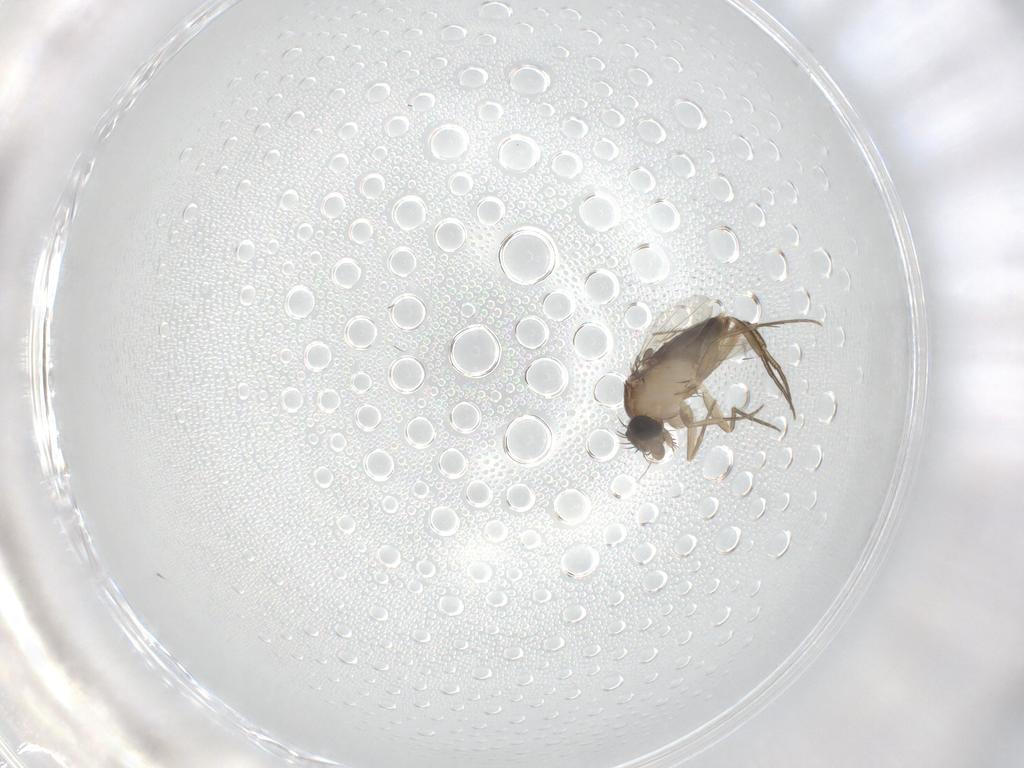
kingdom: Animalia
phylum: Arthropoda
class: Insecta
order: Diptera
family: Phoridae
